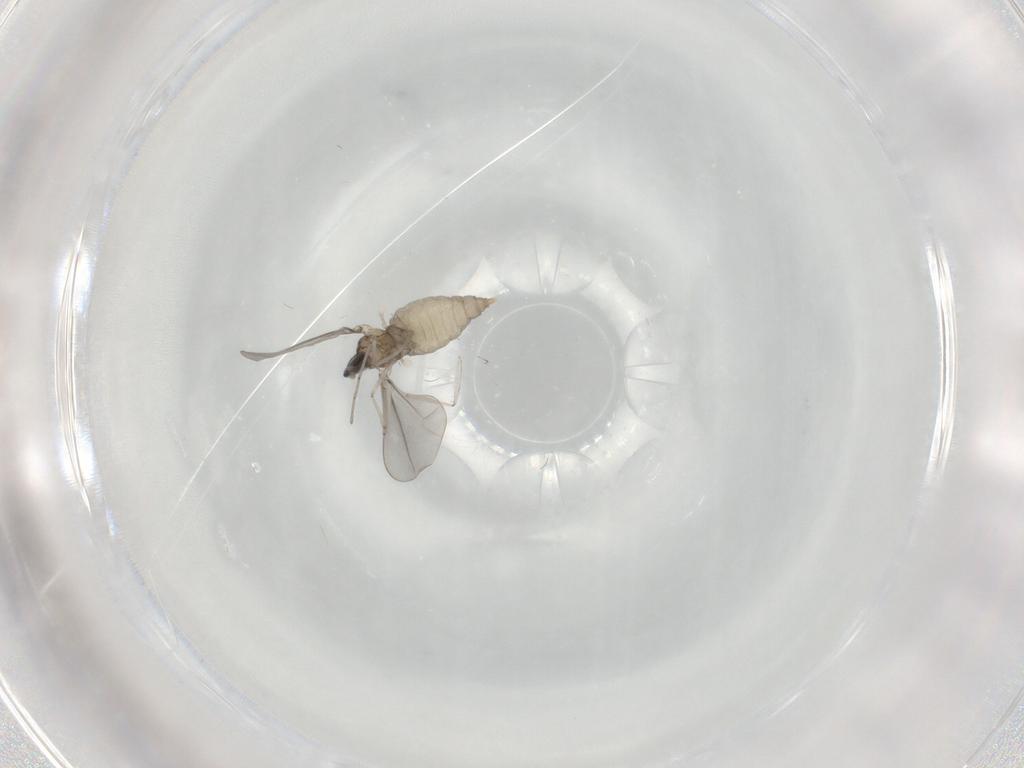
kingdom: Animalia
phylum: Arthropoda
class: Insecta
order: Diptera
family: Cecidomyiidae
